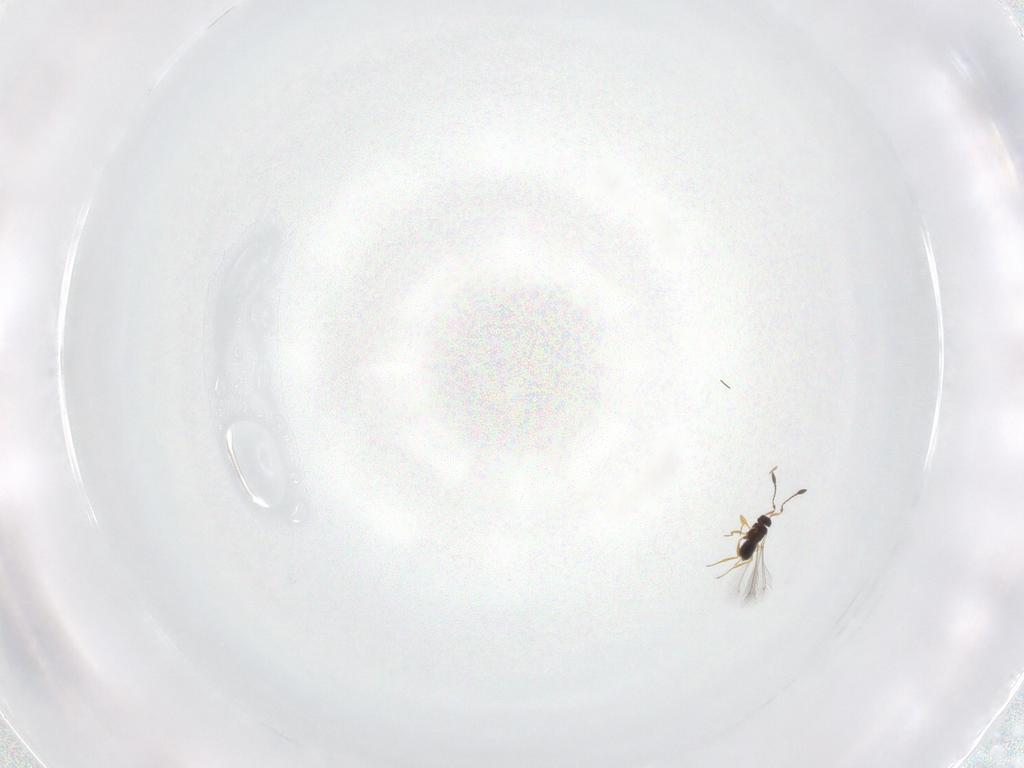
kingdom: Animalia
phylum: Arthropoda
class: Insecta
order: Hymenoptera
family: Mymaridae
